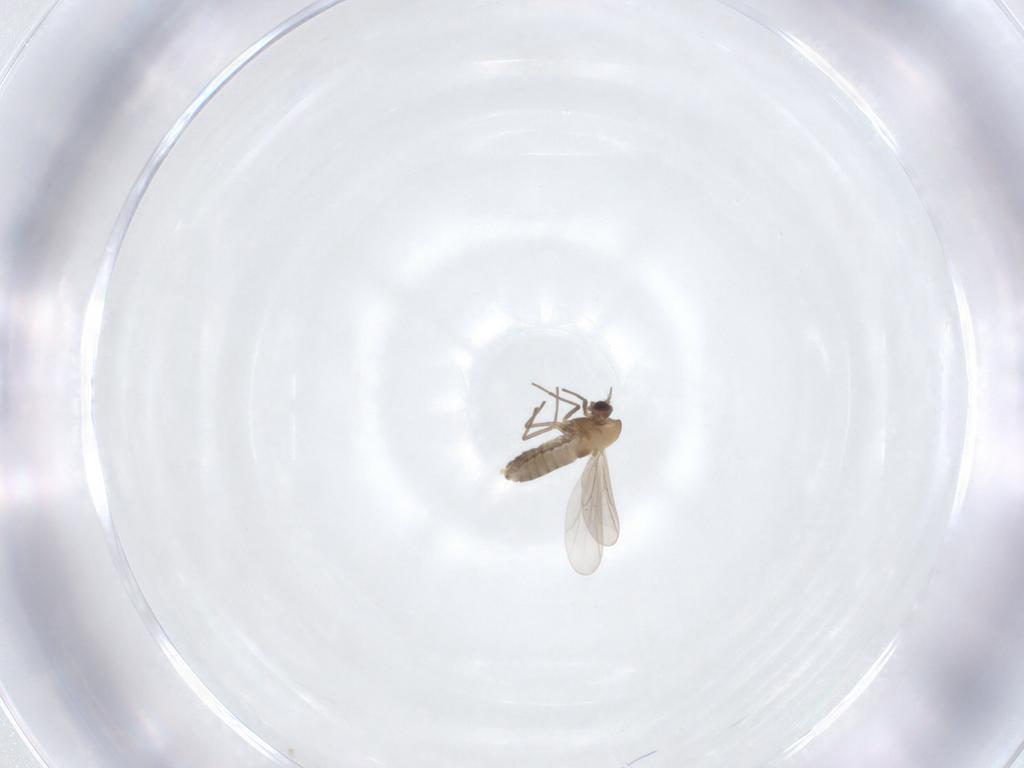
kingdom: Animalia
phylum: Arthropoda
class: Insecta
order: Diptera
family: Chironomidae
